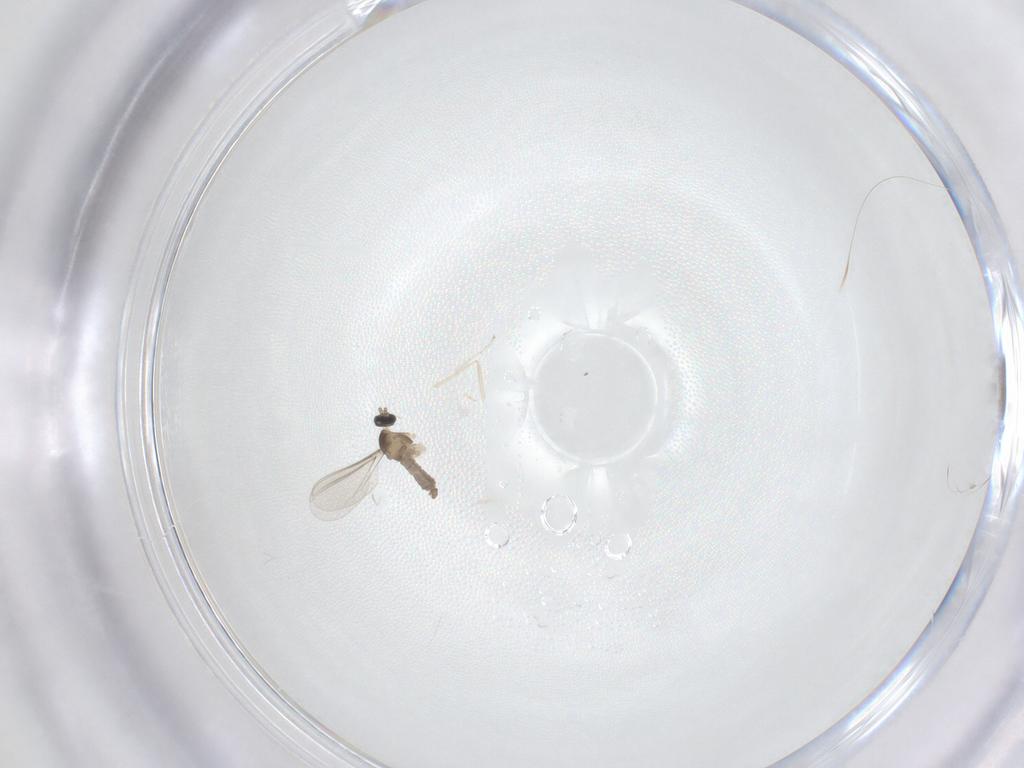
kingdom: Animalia
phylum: Arthropoda
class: Insecta
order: Diptera
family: Cecidomyiidae
